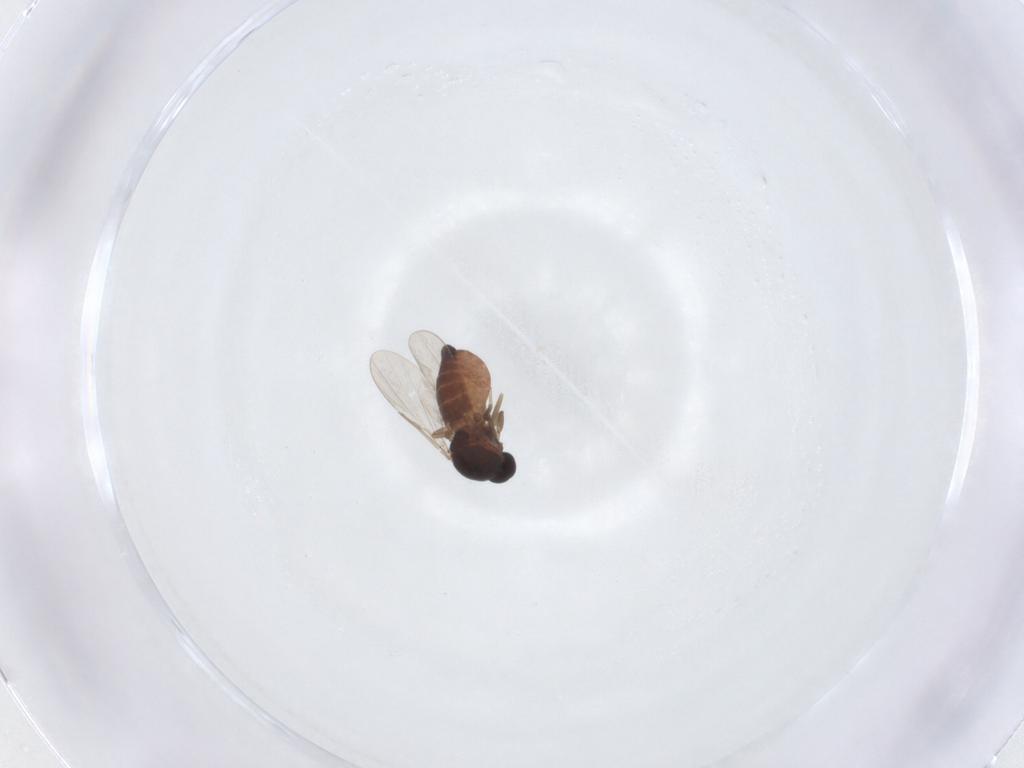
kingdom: Animalia
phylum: Arthropoda
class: Insecta
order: Diptera
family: Ceratopogonidae
